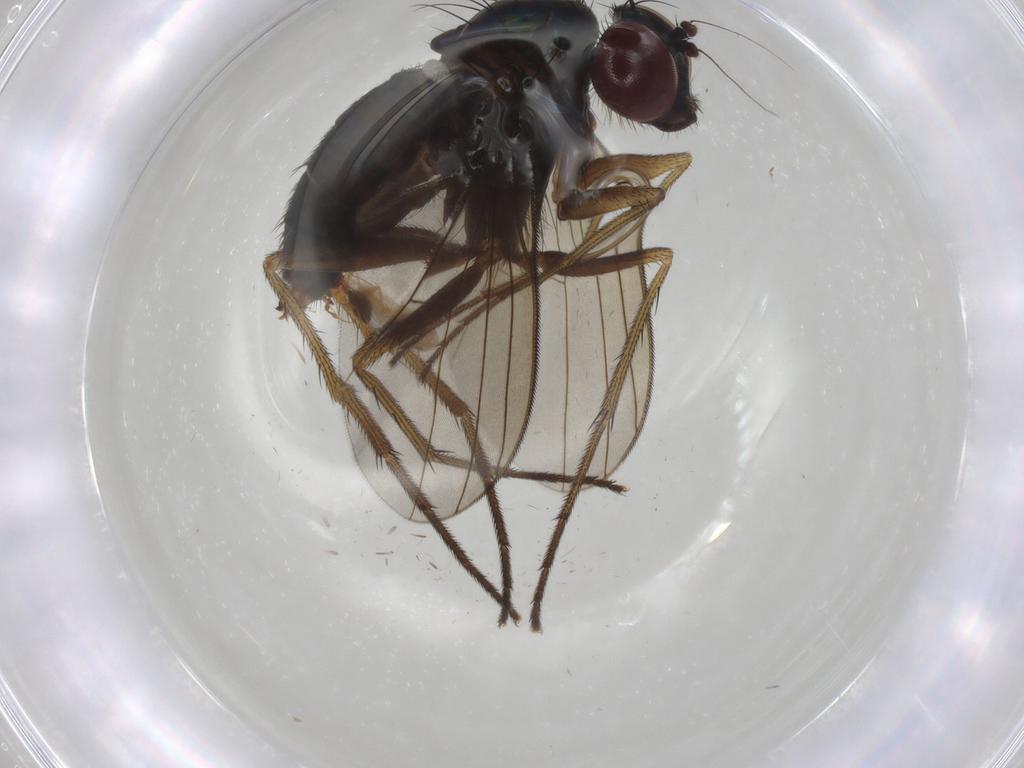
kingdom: Animalia
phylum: Arthropoda
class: Insecta
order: Diptera
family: Dolichopodidae
